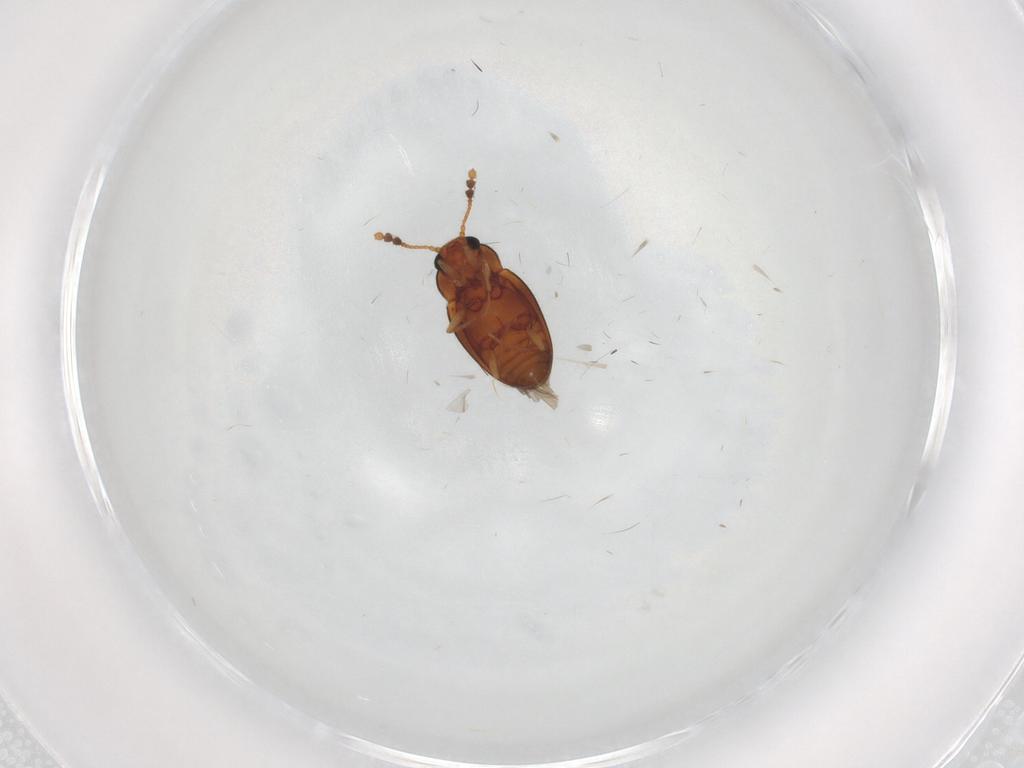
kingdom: Animalia
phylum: Arthropoda
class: Insecta
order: Coleoptera
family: Erotylidae
